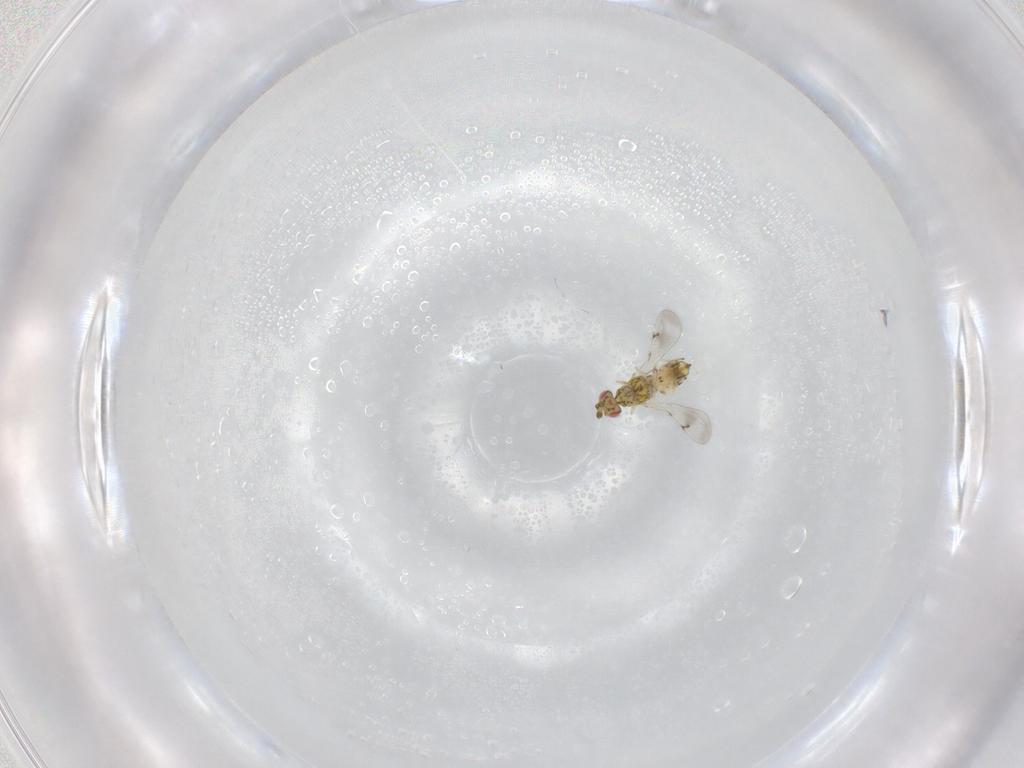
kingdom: Animalia
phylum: Arthropoda
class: Insecta
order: Hymenoptera
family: Eulophidae
